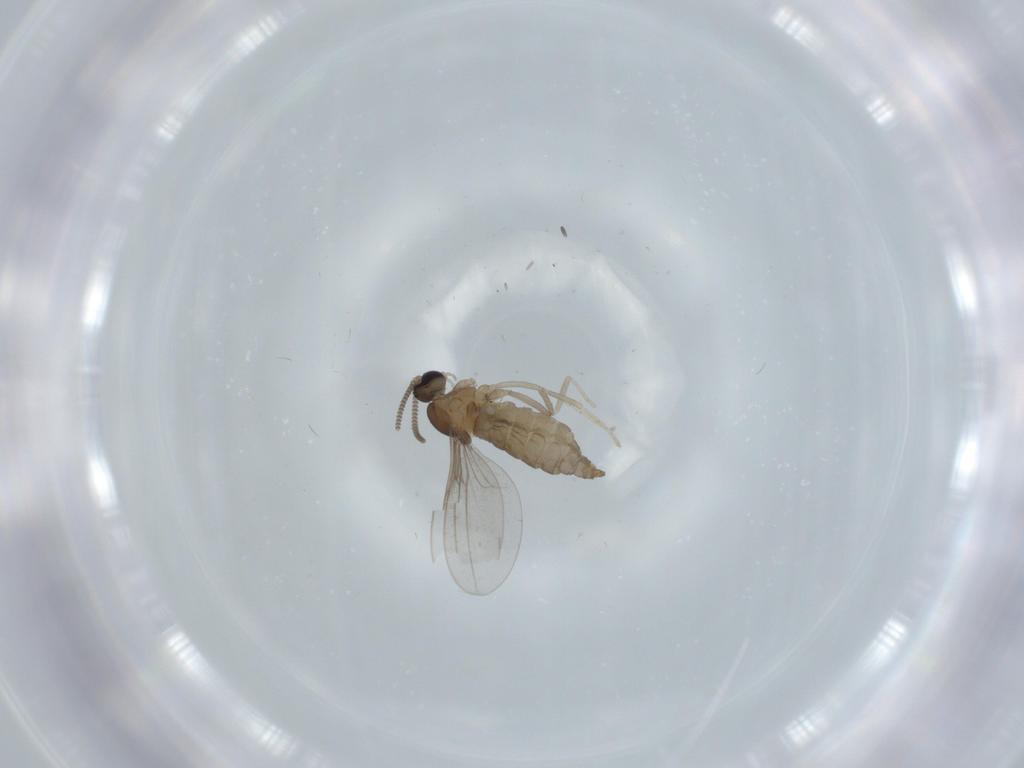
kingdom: Animalia
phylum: Arthropoda
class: Insecta
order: Diptera
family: Cecidomyiidae
